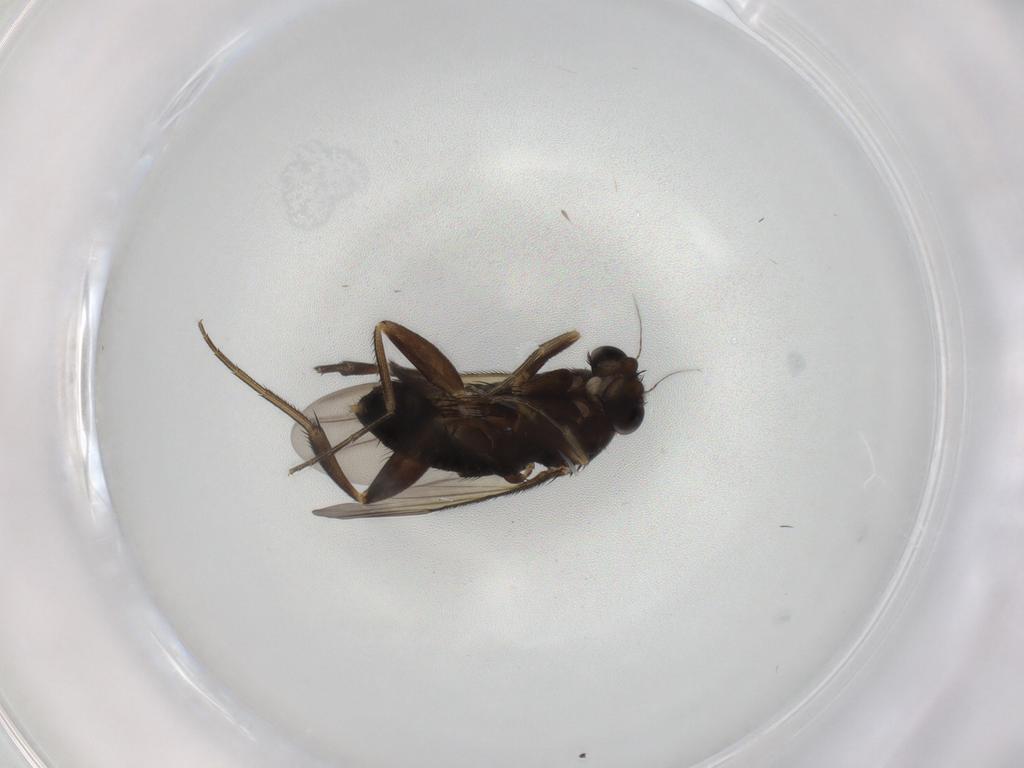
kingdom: Animalia
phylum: Arthropoda
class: Insecta
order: Diptera
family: Phoridae
